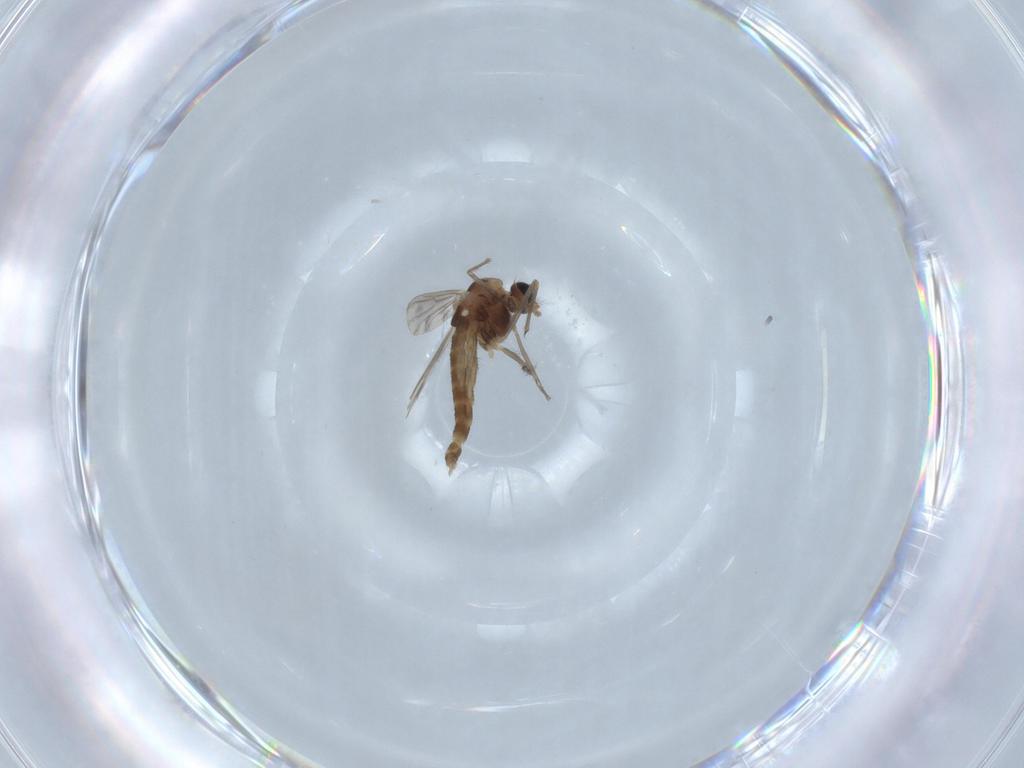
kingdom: Animalia
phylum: Arthropoda
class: Insecta
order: Diptera
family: Chironomidae
